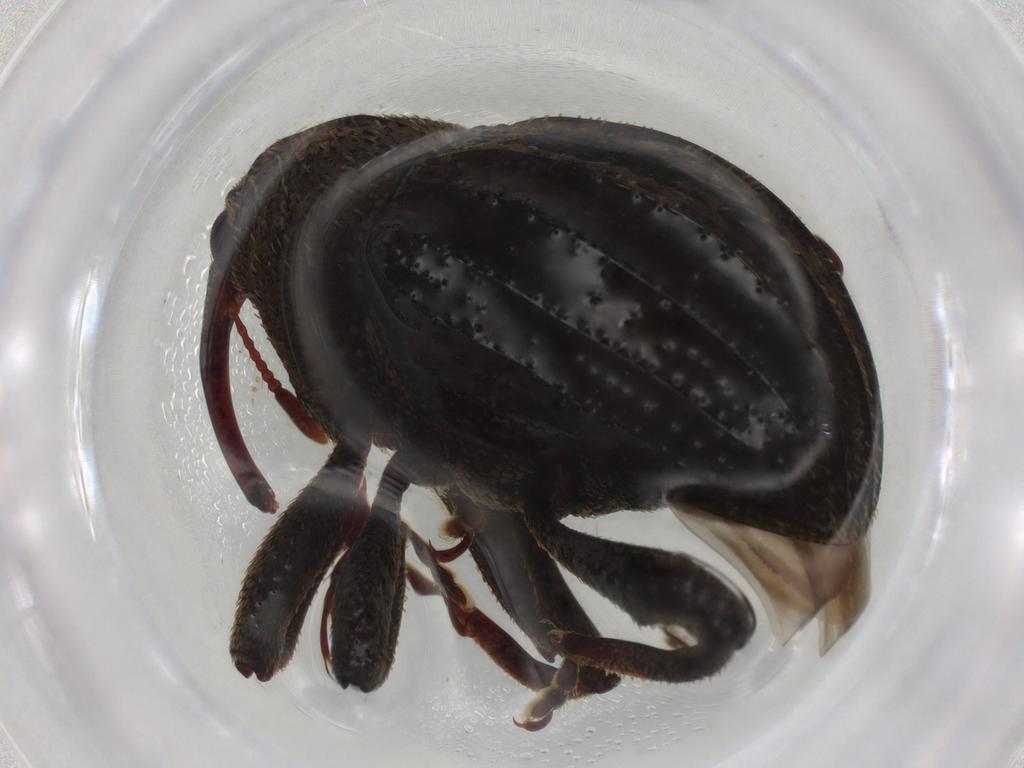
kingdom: Animalia
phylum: Arthropoda
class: Insecta
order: Coleoptera
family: Curculionidae
